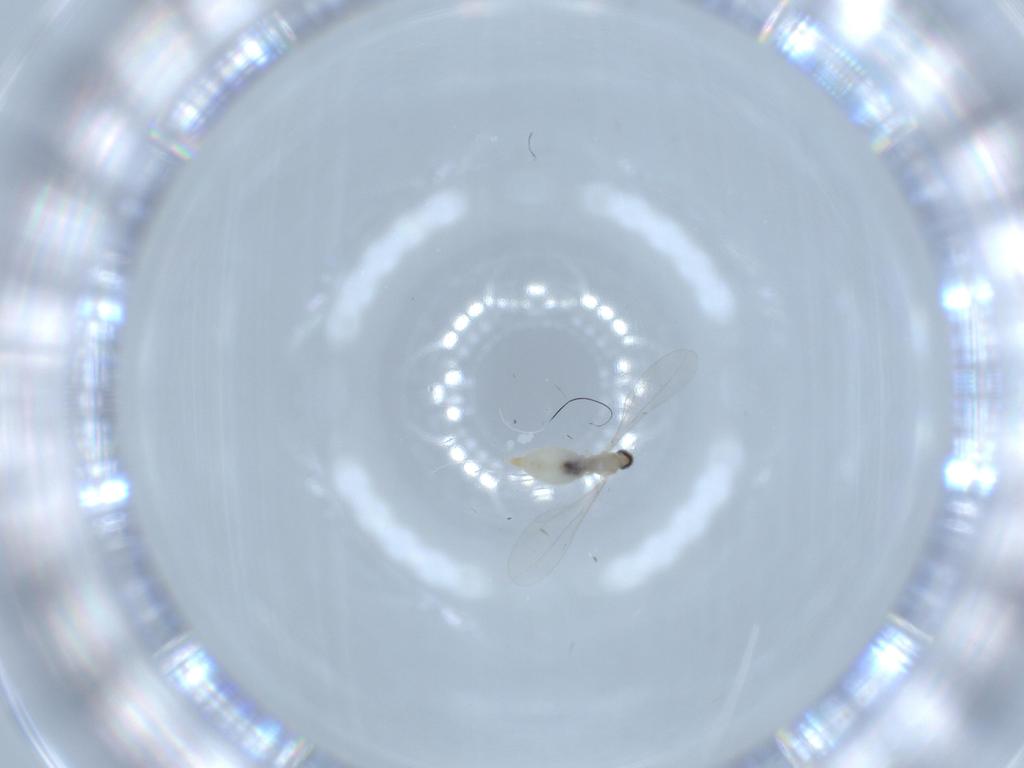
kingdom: Animalia
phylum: Arthropoda
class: Insecta
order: Diptera
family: Cecidomyiidae
